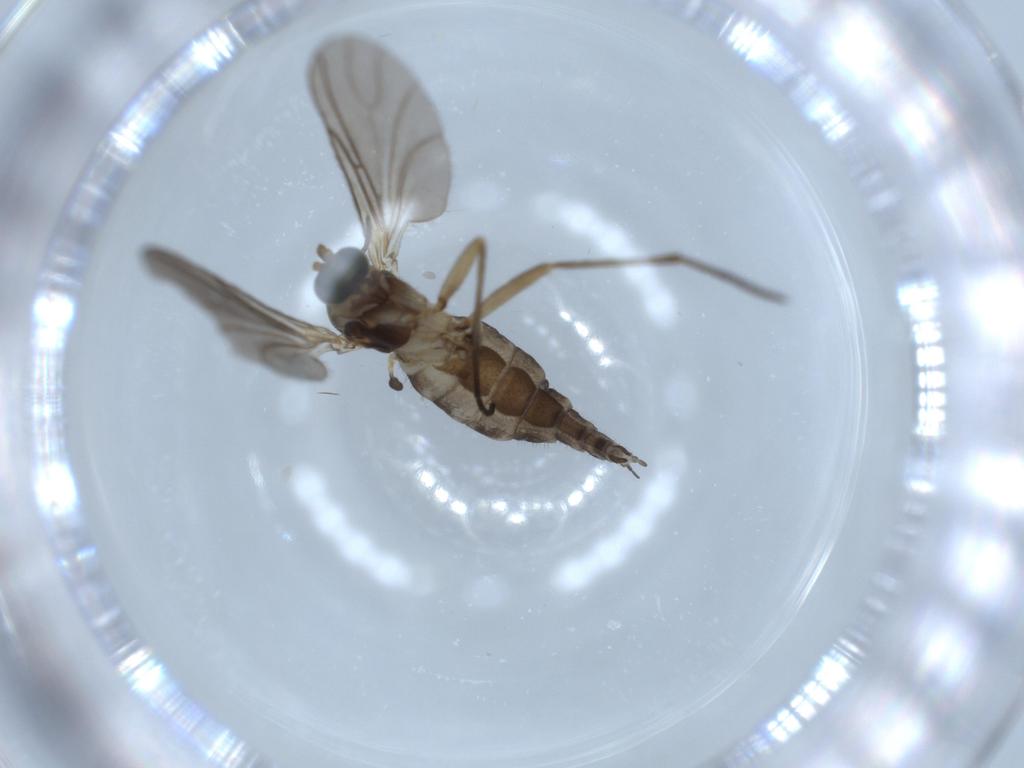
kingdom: Animalia
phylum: Arthropoda
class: Insecta
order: Diptera
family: Sciaridae
